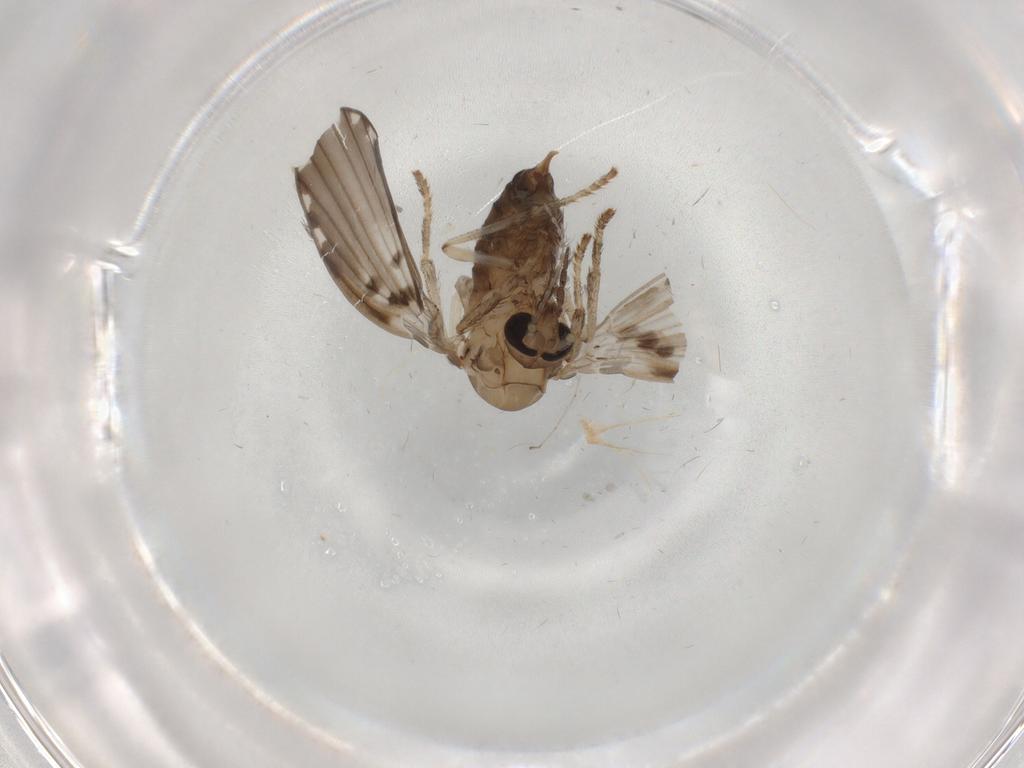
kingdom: Animalia
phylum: Arthropoda
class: Insecta
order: Diptera
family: Psychodidae
